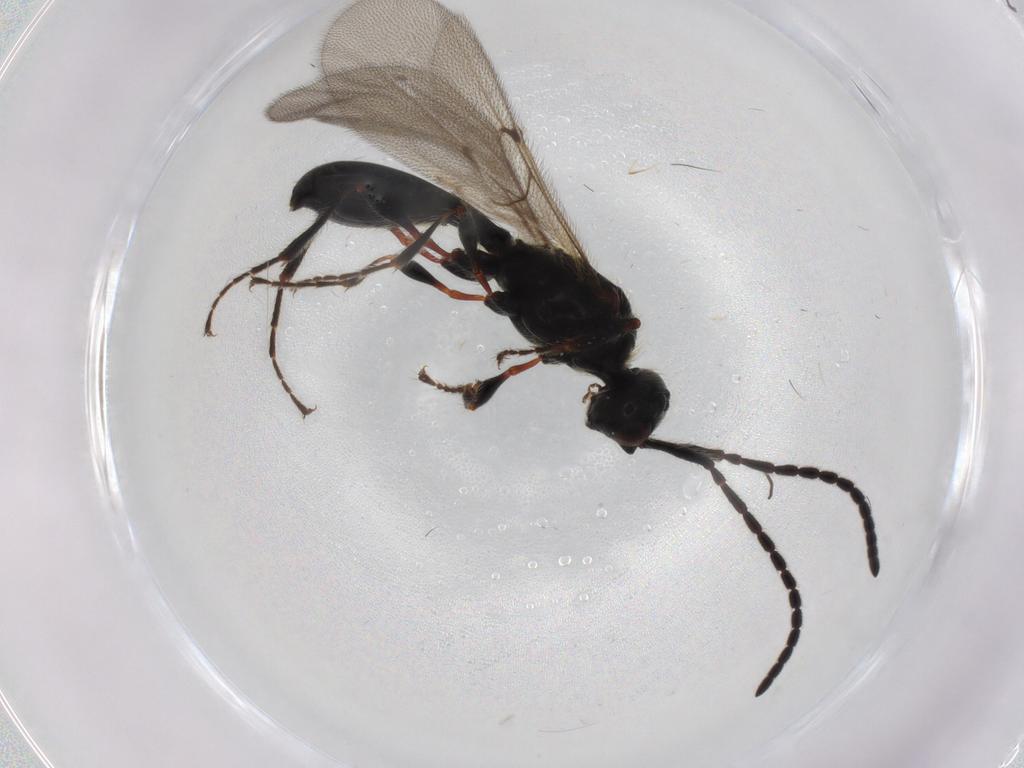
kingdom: Animalia
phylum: Arthropoda
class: Insecta
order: Hymenoptera
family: Diapriidae
